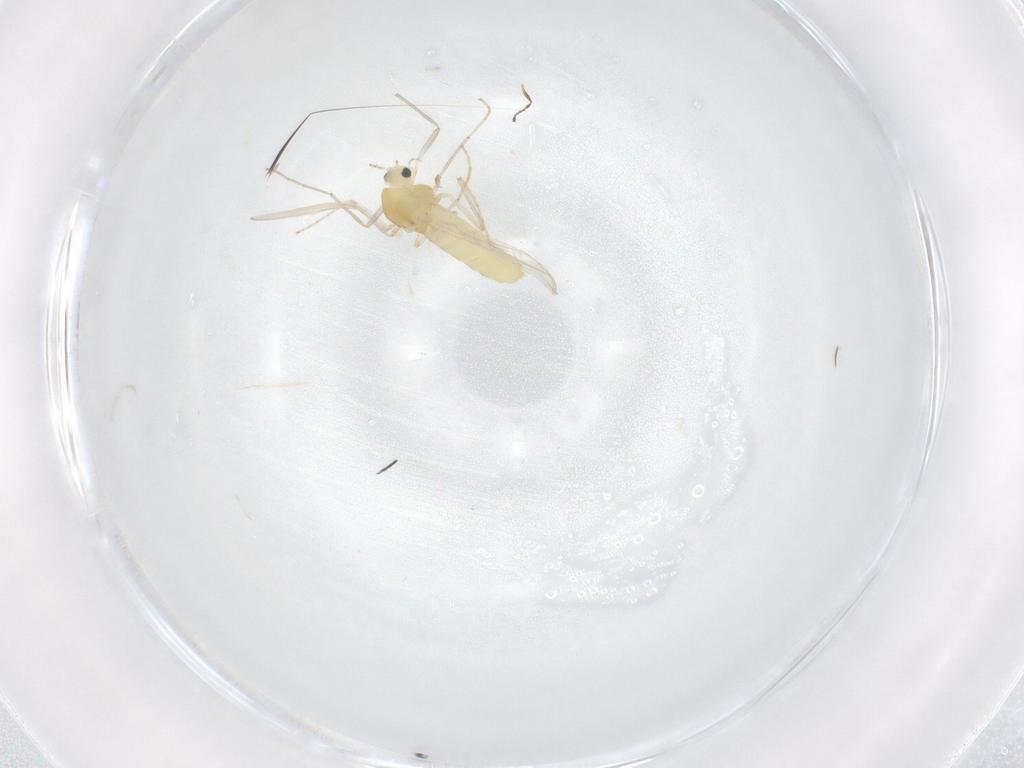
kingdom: Animalia
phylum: Arthropoda
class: Insecta
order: Diptera
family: Chironomidae
